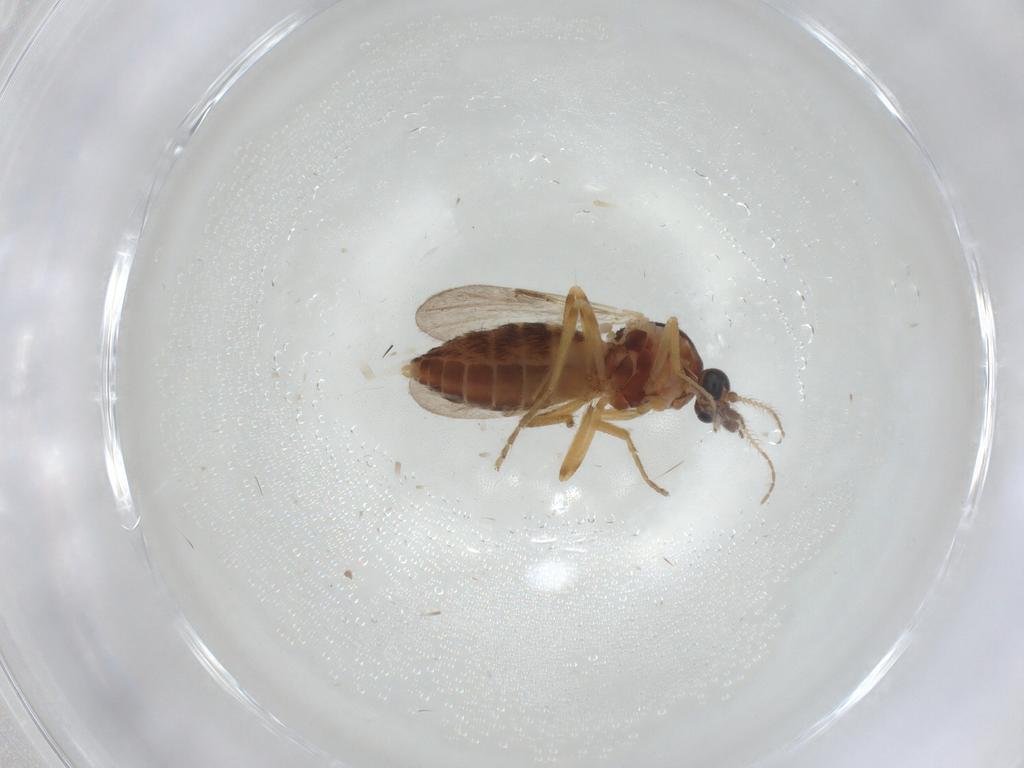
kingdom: Animalia
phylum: Arthropoda
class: Insecta
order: Diptera
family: Ceratopogonidae
